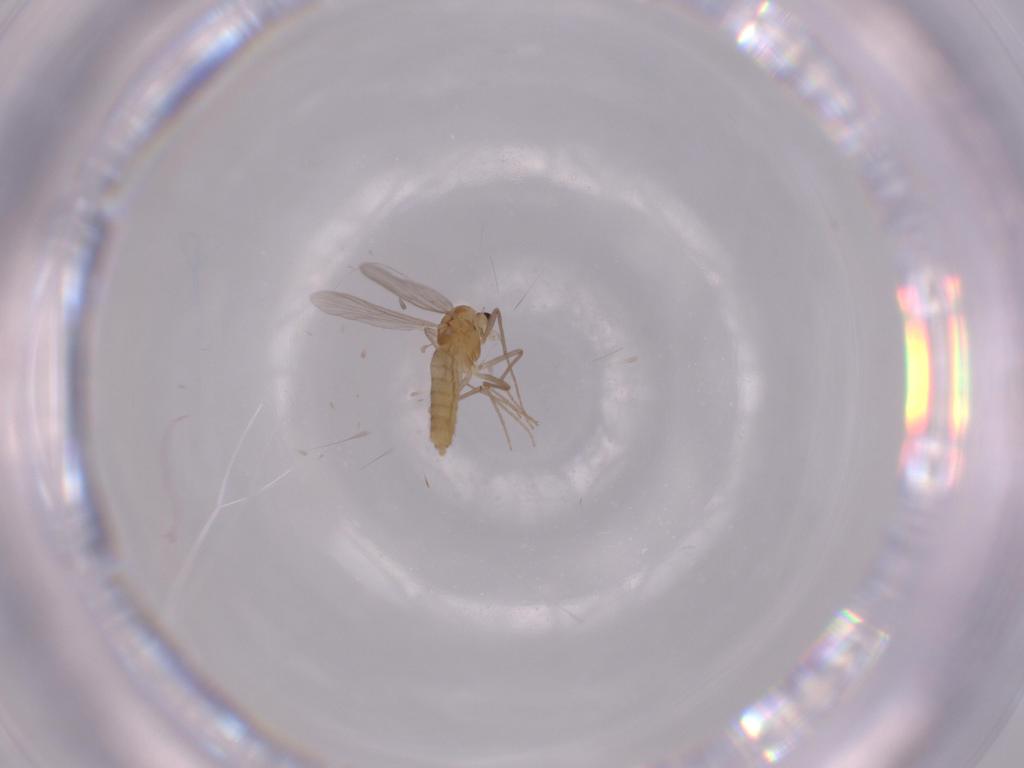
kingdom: Animalia
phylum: Arthropoda
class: Insecta
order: Diptera
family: Chironomidae
